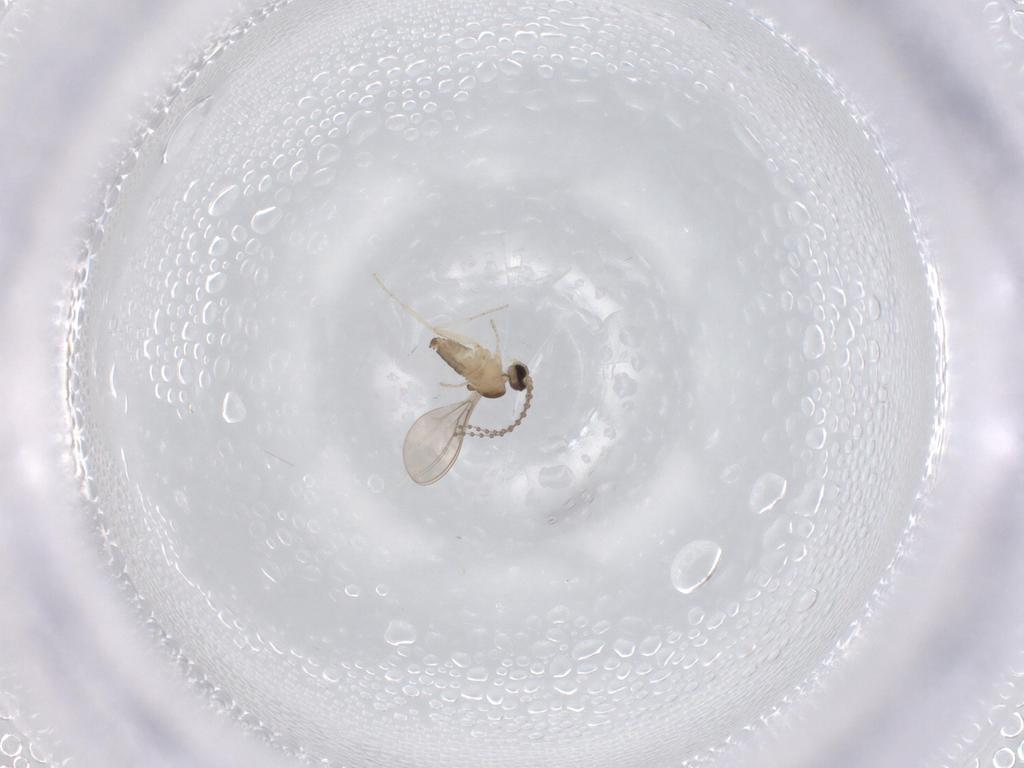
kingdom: Animalia
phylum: Arthropoda
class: Insecta
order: Diptera
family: Cecidomyiidae
